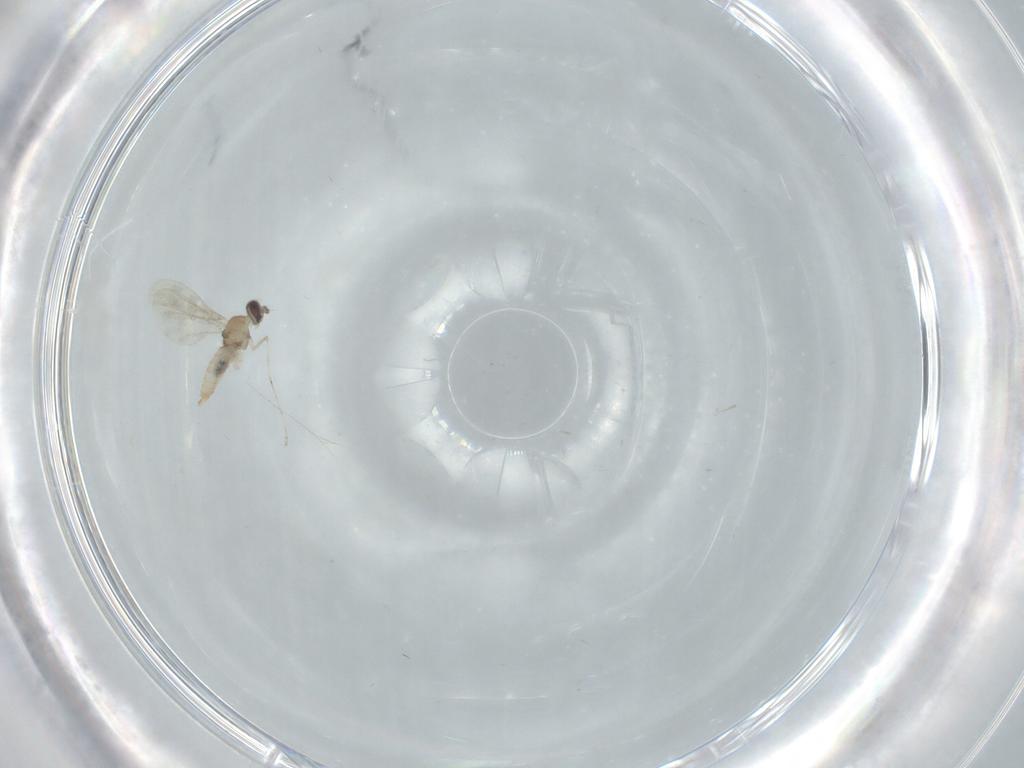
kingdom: Animalia
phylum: Arthropoda
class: Insecta
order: Diptera
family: Cecidomyiidae
